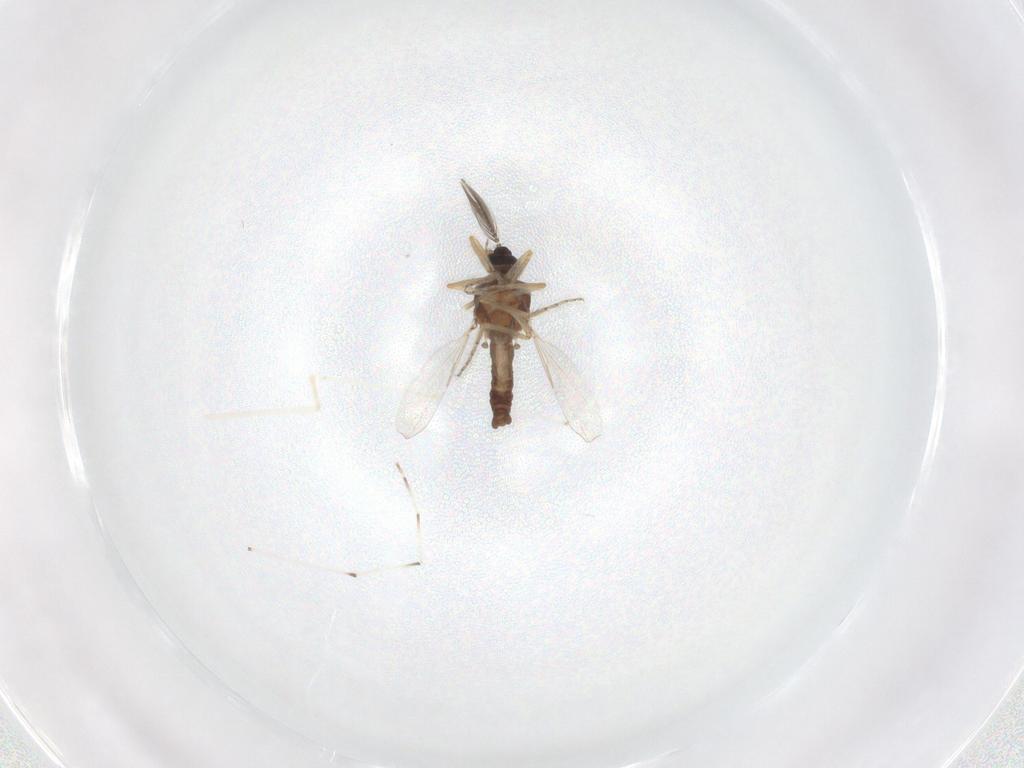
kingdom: Animalia
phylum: Arthropoda
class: Insecta
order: Diptera
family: Ceratopogonidae
